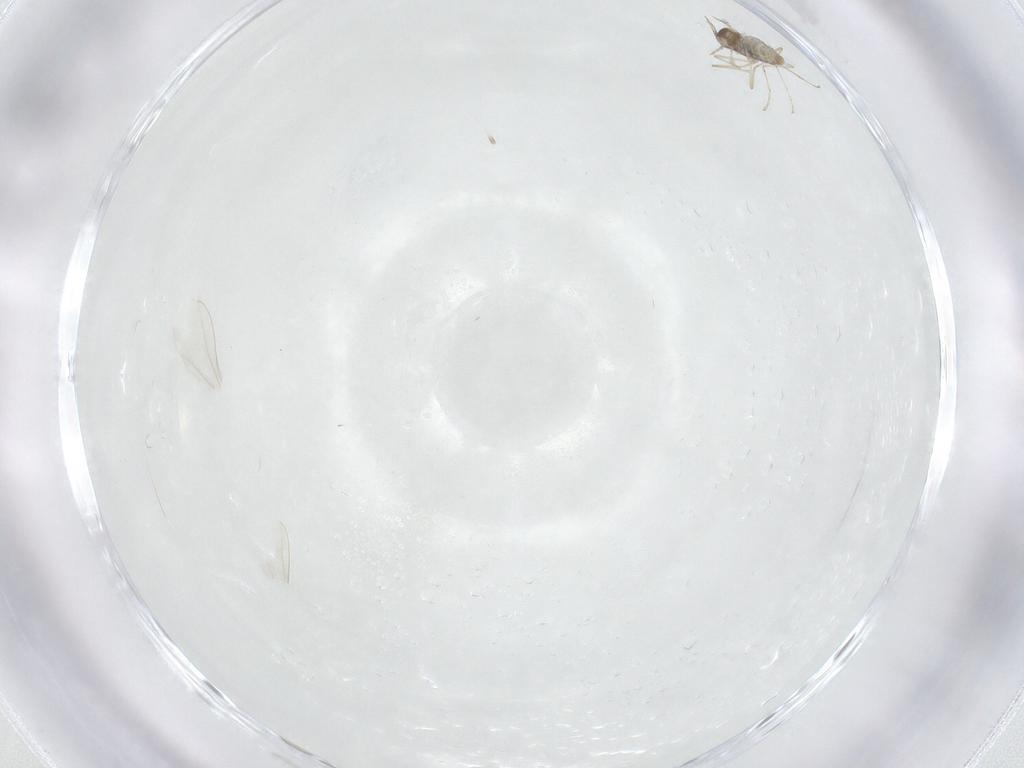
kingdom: Animalia
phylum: Arthropoda
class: Insecta
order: Diptera
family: Cecidomyiidae
